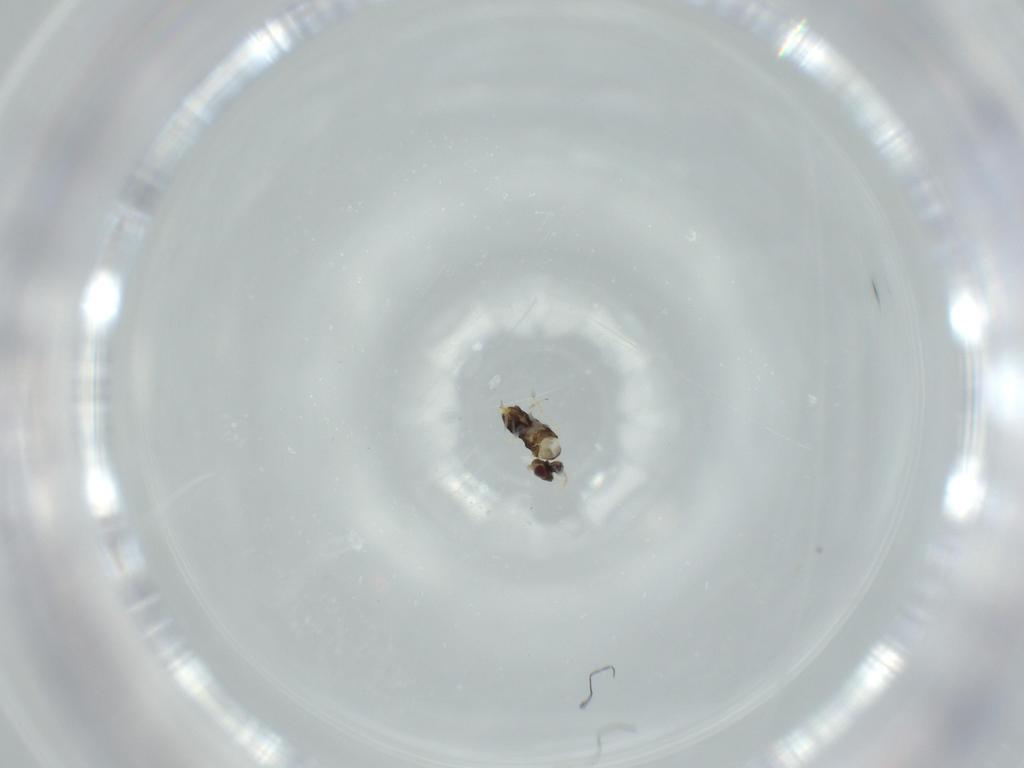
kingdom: Animalia
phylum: Arthropoda
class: Insecta
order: Hymenoptera
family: Aphelinidae
